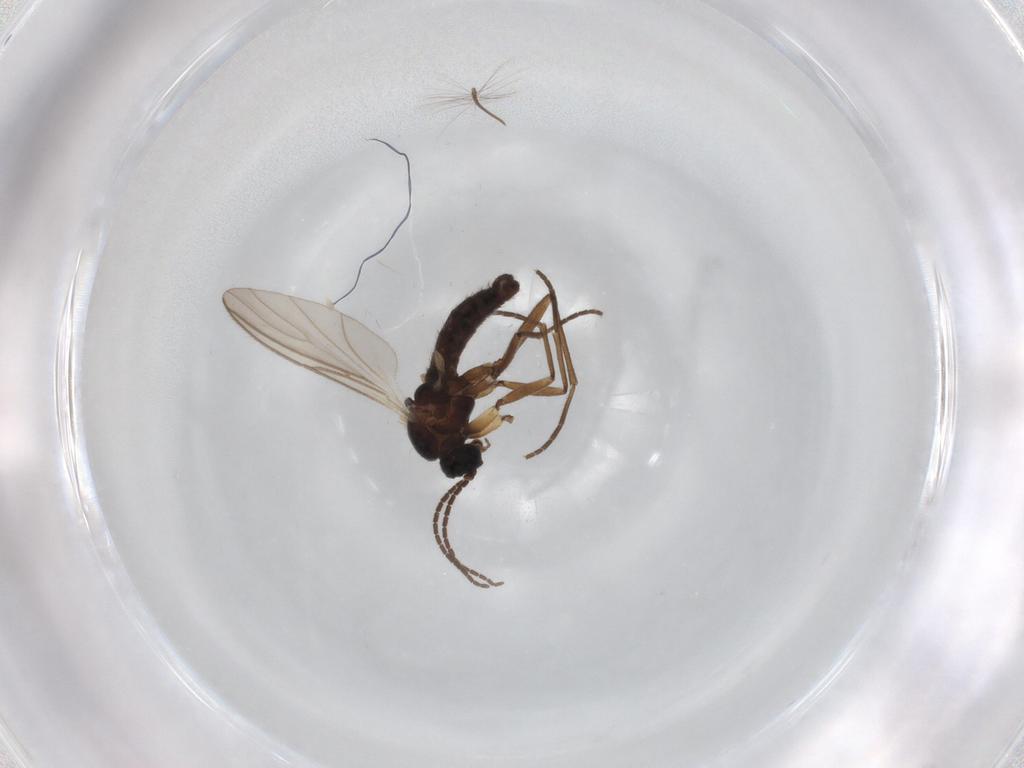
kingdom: Animalia
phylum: Arthropoda
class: Insecta
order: Diptera
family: Sciaridae
